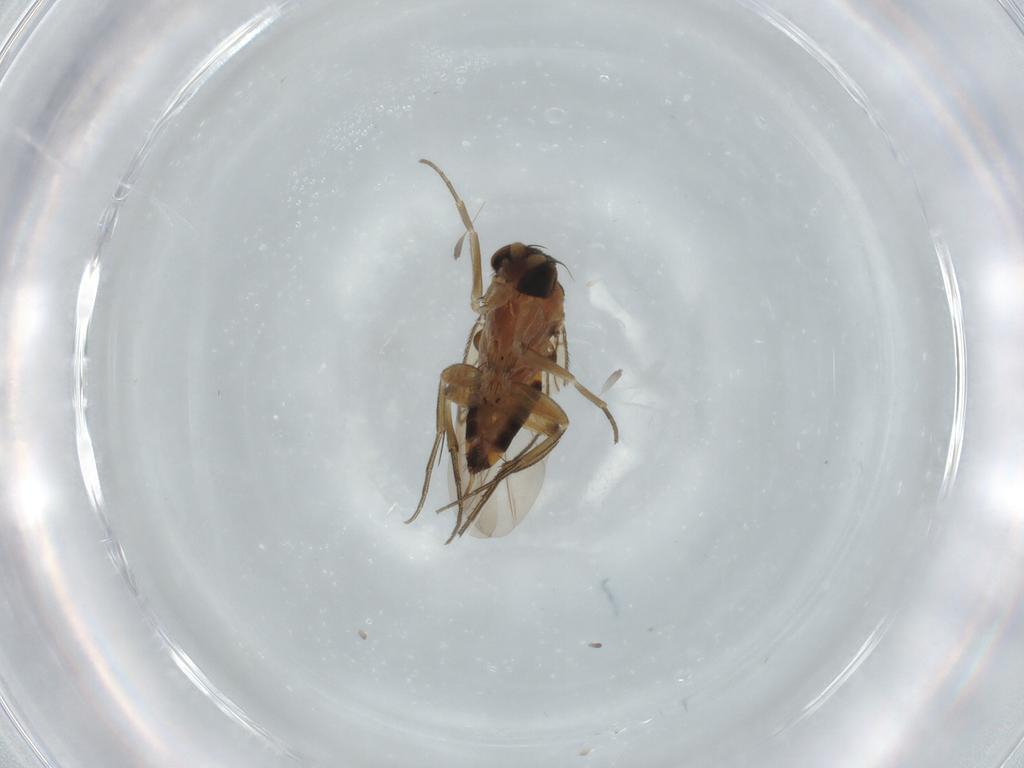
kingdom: Animalia
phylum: Arthropoda
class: Insecta
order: Diptera
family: Phoridae
